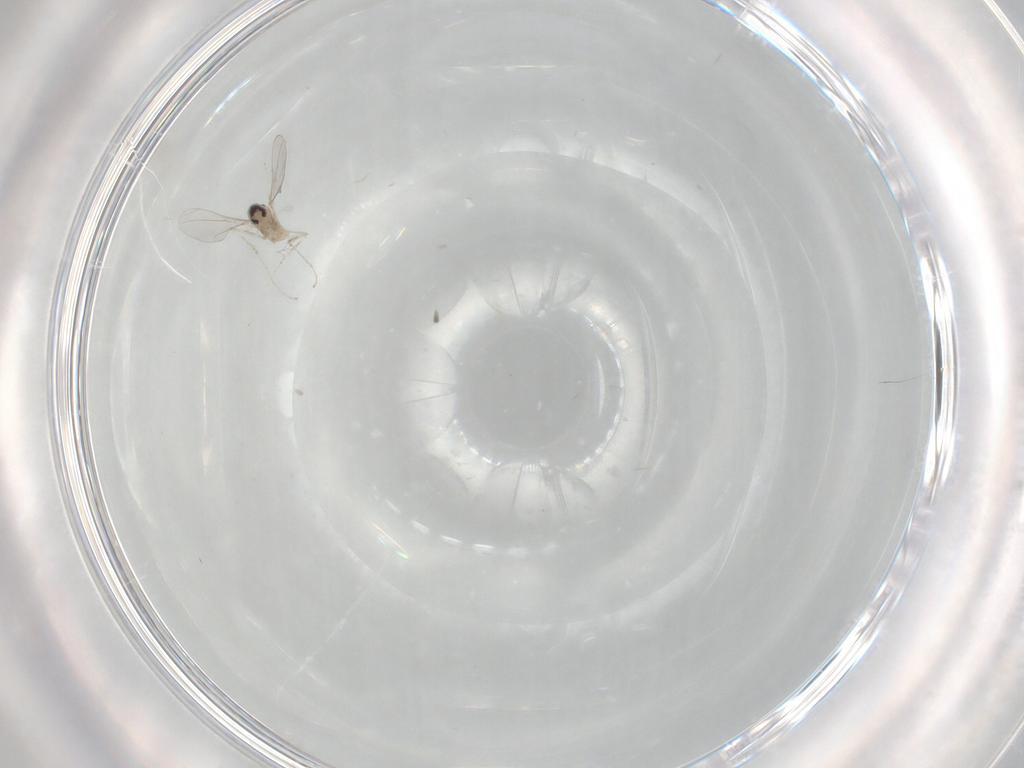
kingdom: Animalia
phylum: Arthropoda
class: Insecta
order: Diptera
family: Cecidomyiidae
